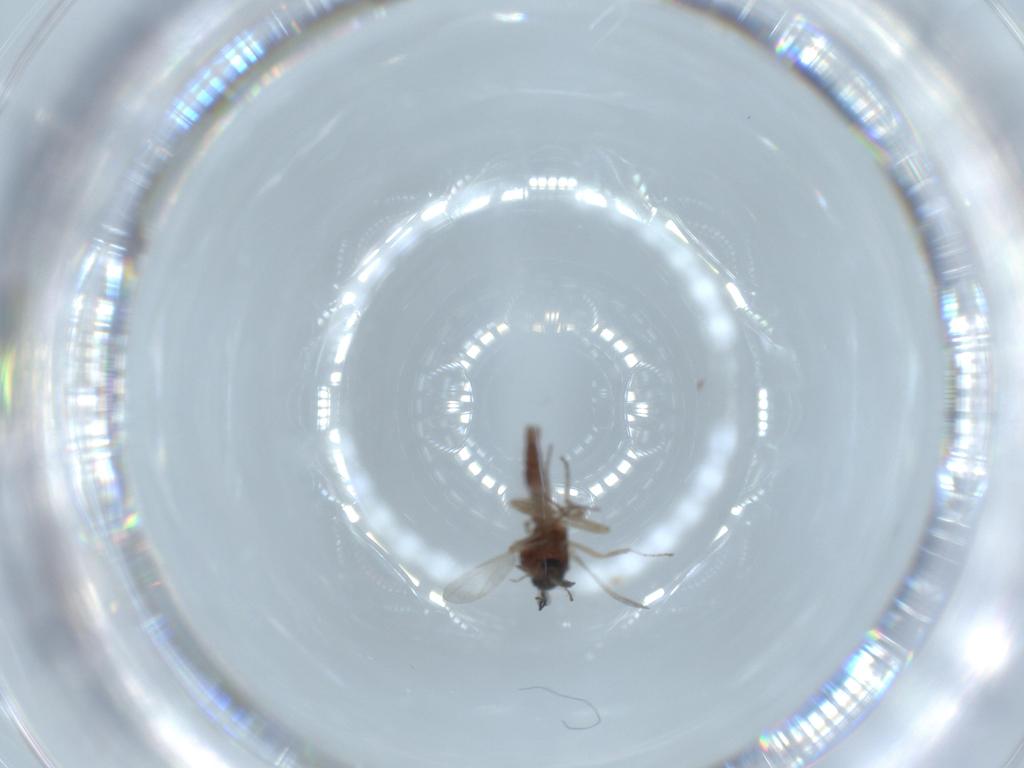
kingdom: Animalia
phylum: Arthropoda
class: Insecta
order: Diptera
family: Ceratopogonidae
